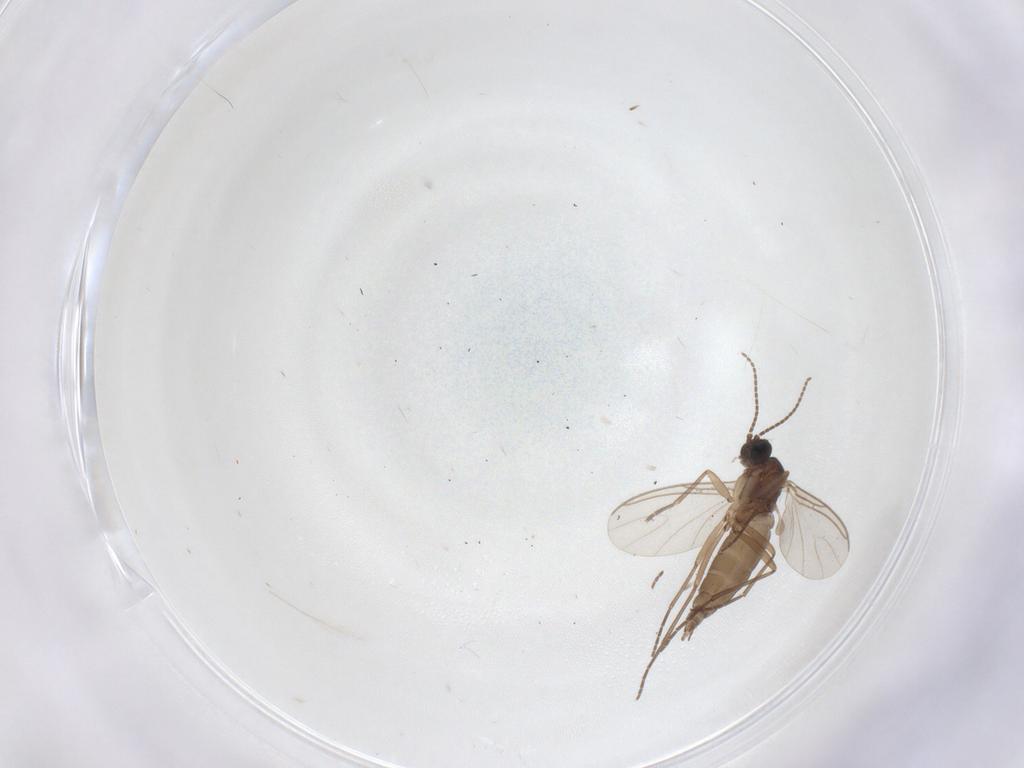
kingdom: Animalia
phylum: Arthropoda
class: Insecta
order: Diptera
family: Sciaridae
